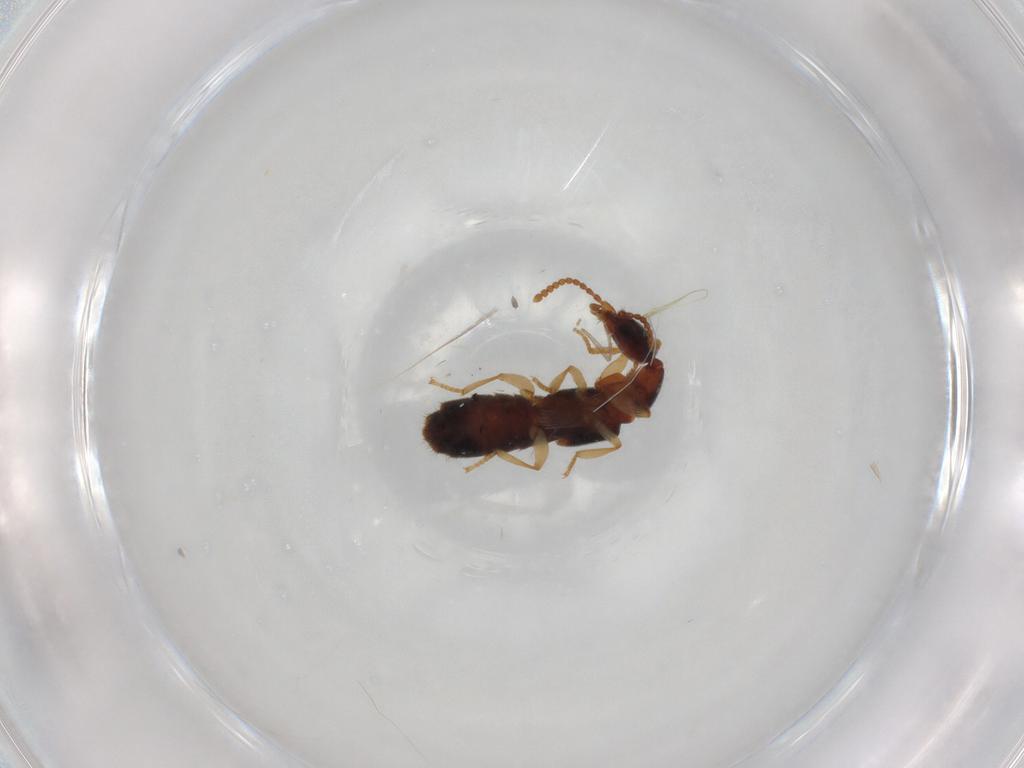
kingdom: Animalia
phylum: Arthropoda
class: Insecta
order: Coleoptera
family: Staphylinidae
